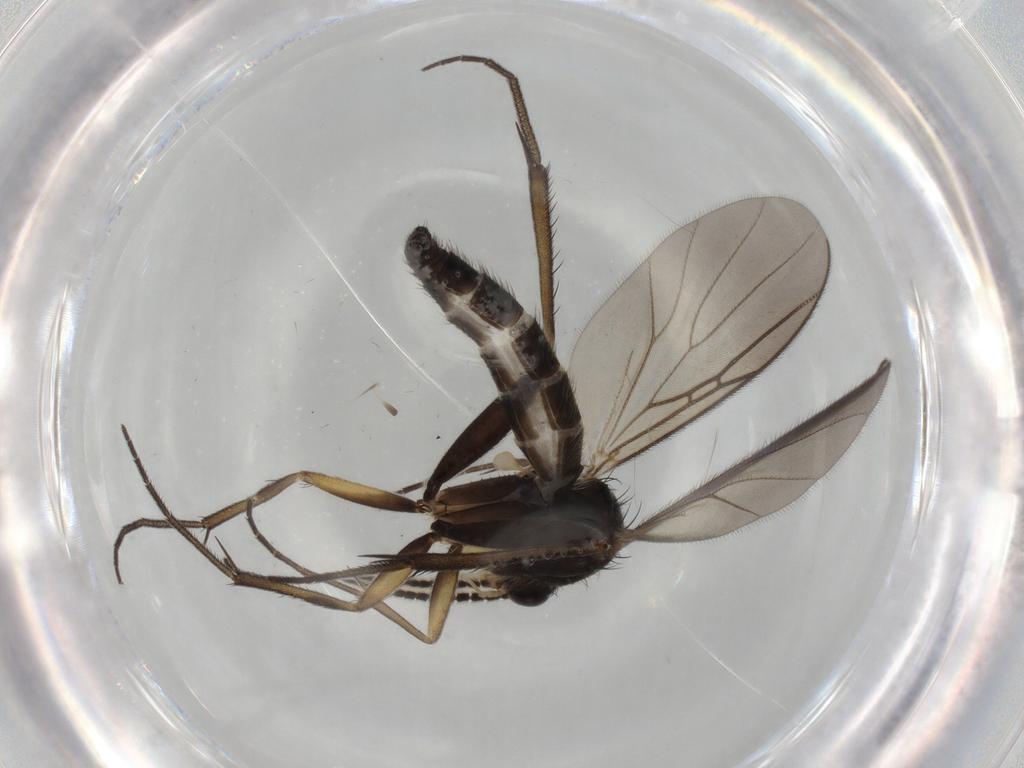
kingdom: Animalia
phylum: Arthropoda
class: Insecta
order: Diptera
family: Mycetophilidae
